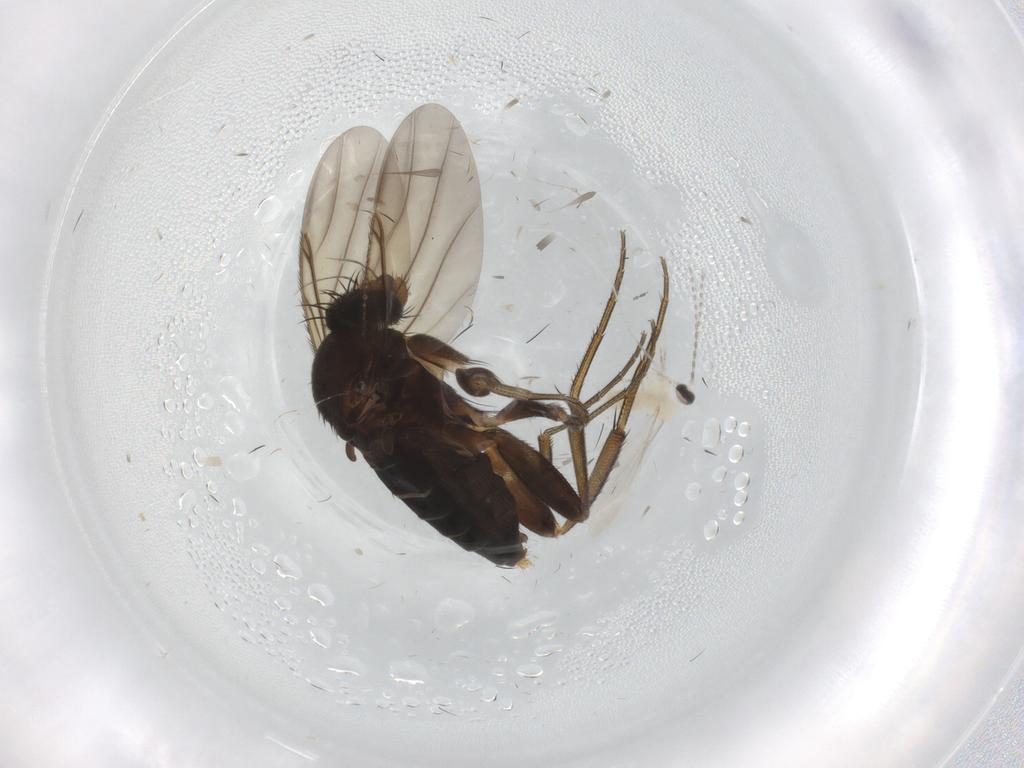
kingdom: Animalia
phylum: Arthropoda
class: Insecta
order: Diptera
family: Phoridae
